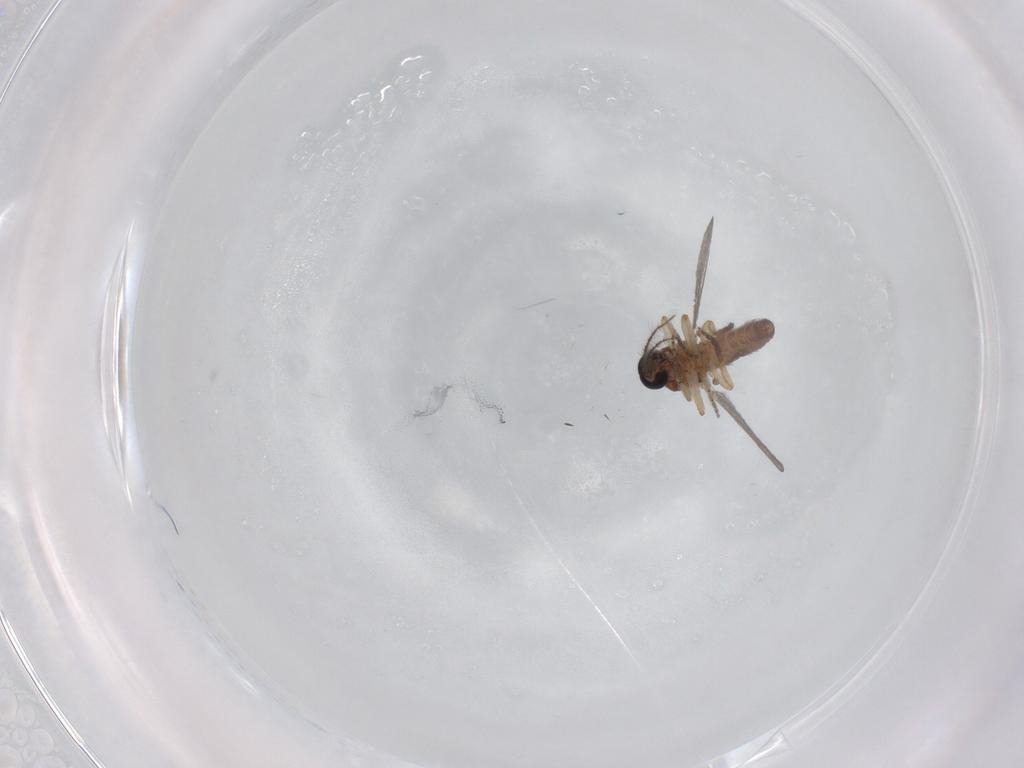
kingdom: Animalia
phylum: Arthropoda
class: Insecta
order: Diptera
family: Ceratopogonidae
